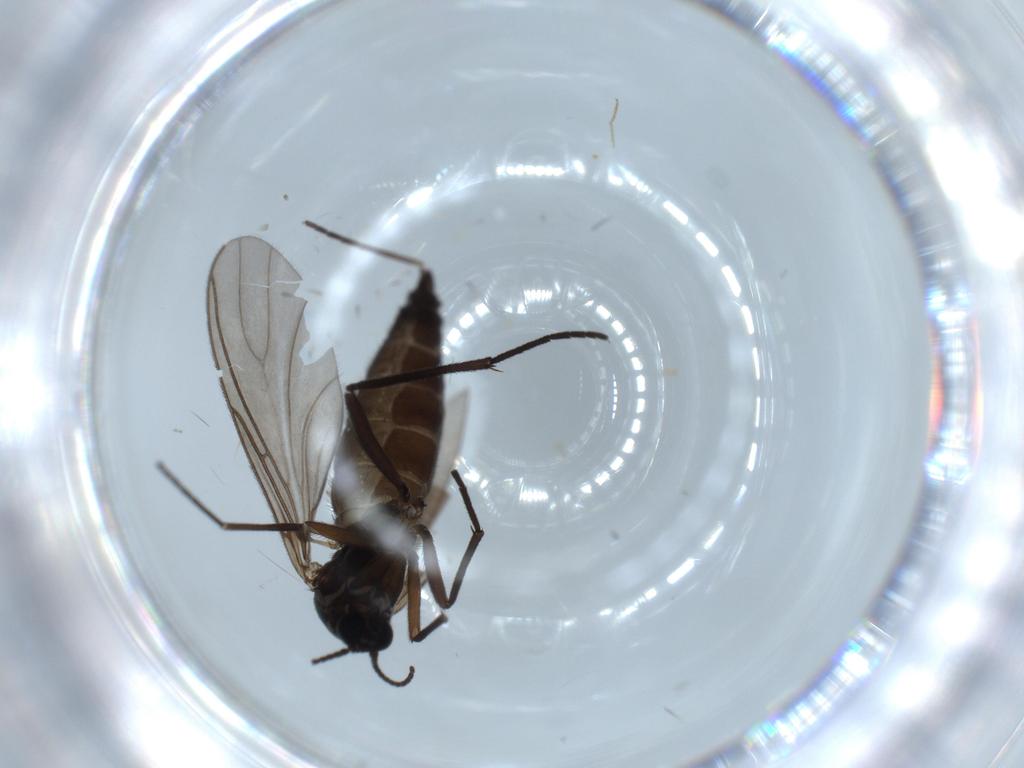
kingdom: Animalia
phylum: Arthropoda
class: Insecta
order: Diptera
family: Sciaridae
